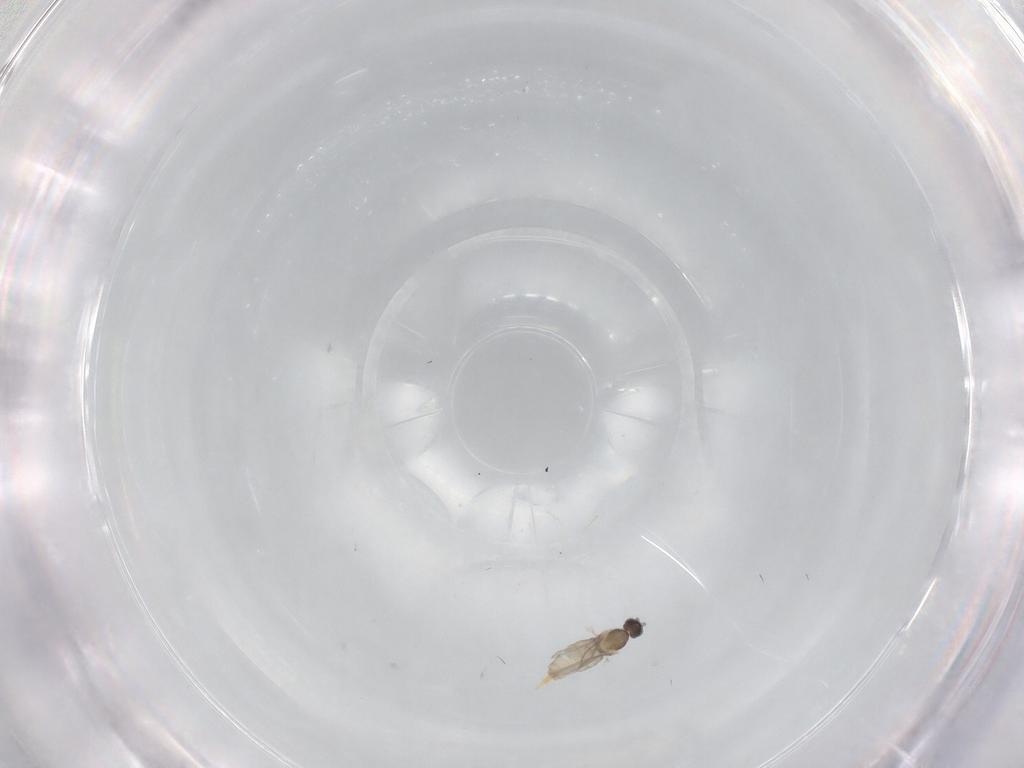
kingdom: Animalia
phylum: Arthropoda
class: Insecta
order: Diptera
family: Cecidomyiidae
